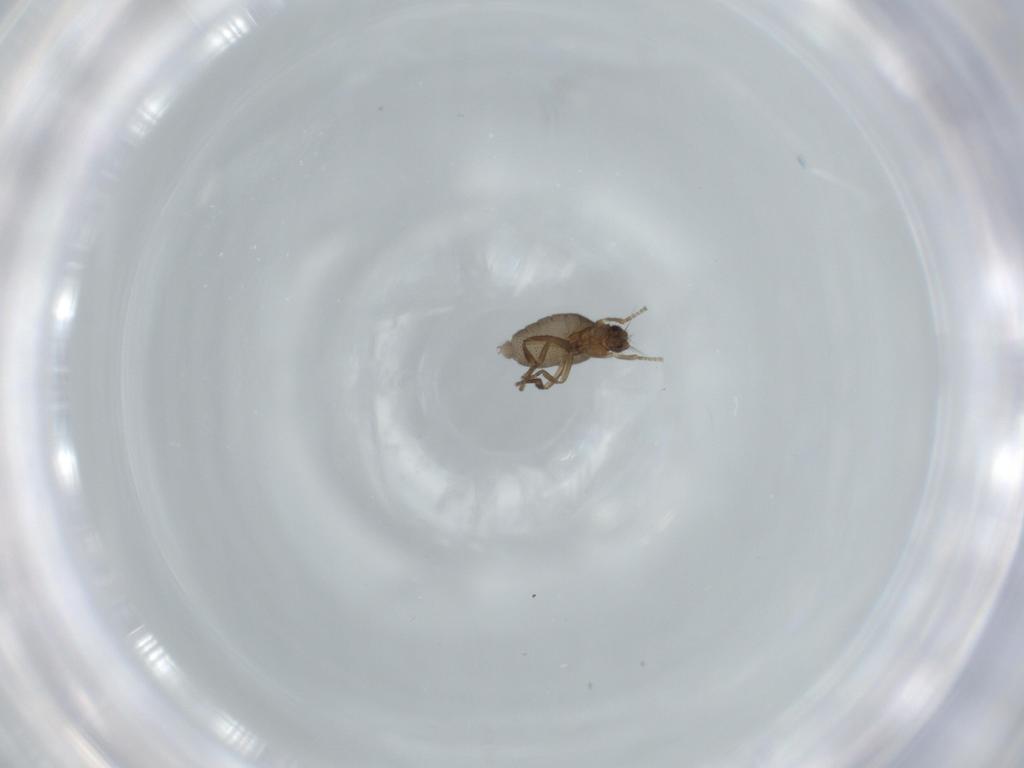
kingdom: Animalia
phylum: Arthropoda
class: Insecta
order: Diptera
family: Phoridae
